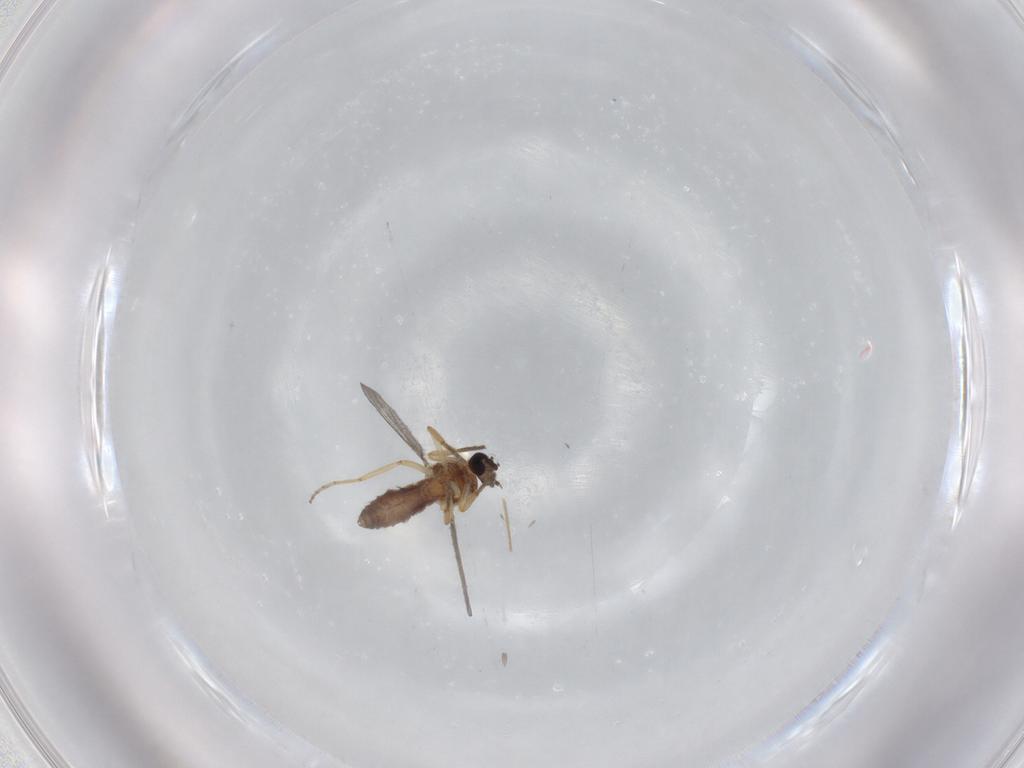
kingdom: Animalia
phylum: Arthropoda
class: Insecta
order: Diptera
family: Ceratopogonidae
